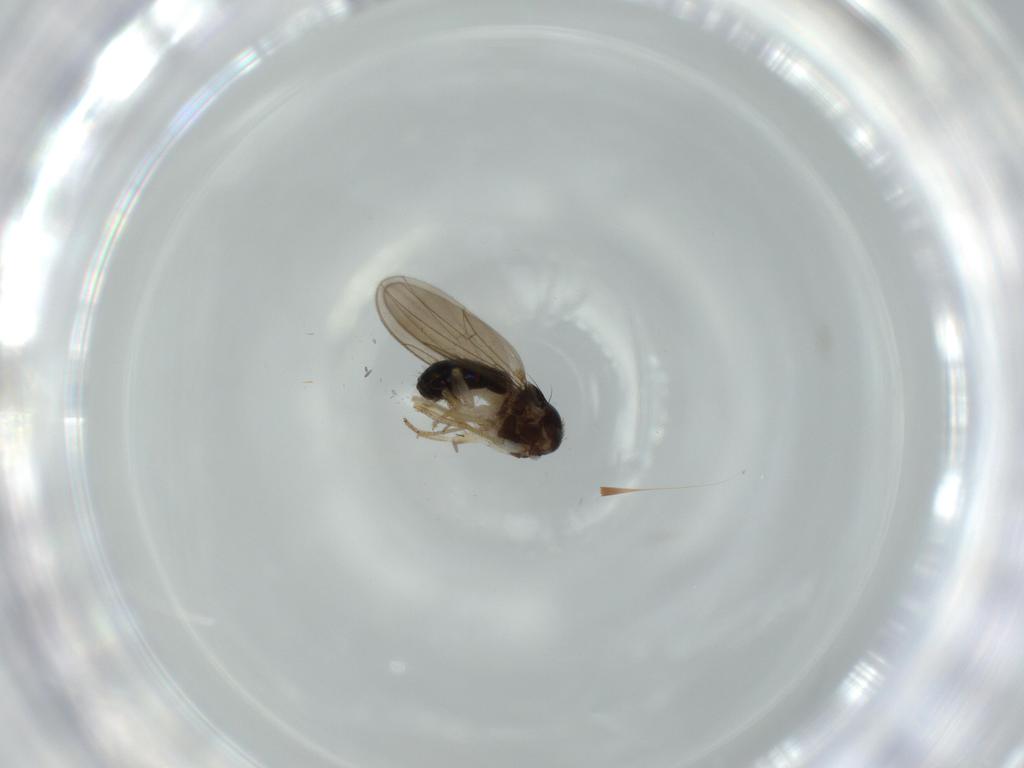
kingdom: Animalia
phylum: Arthropoda
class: Insecta
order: Diptera
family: Drosophilidae
